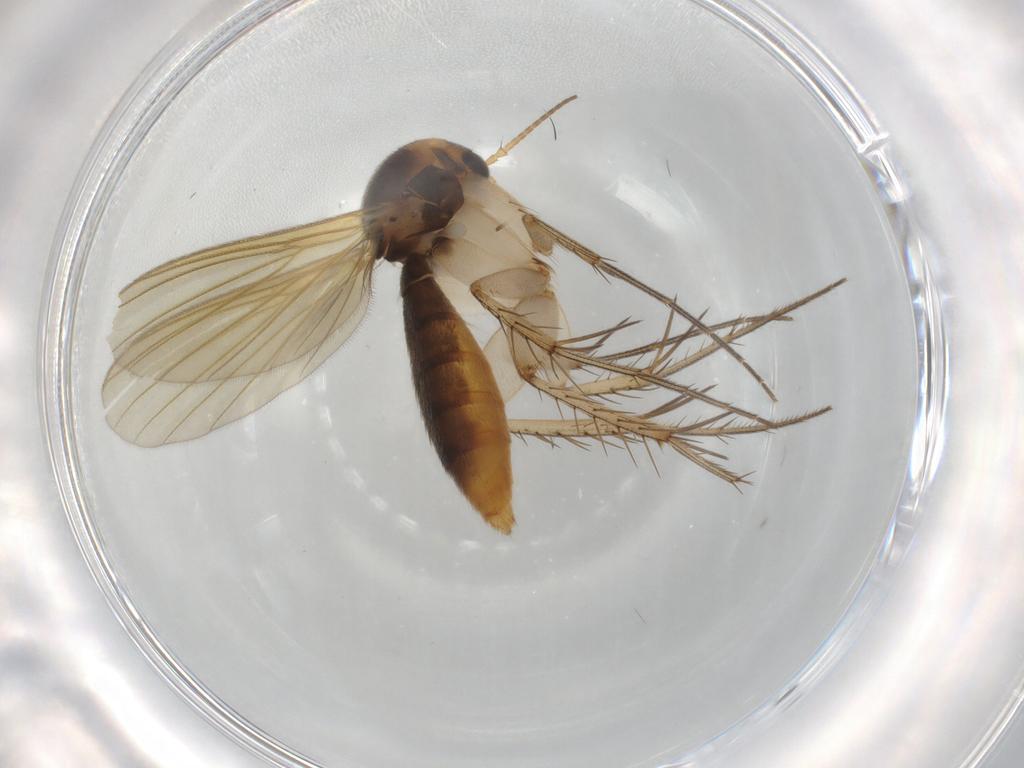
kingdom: Animalia
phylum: Arthropoda
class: Insecta
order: Diptera
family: Mycetophilidae
